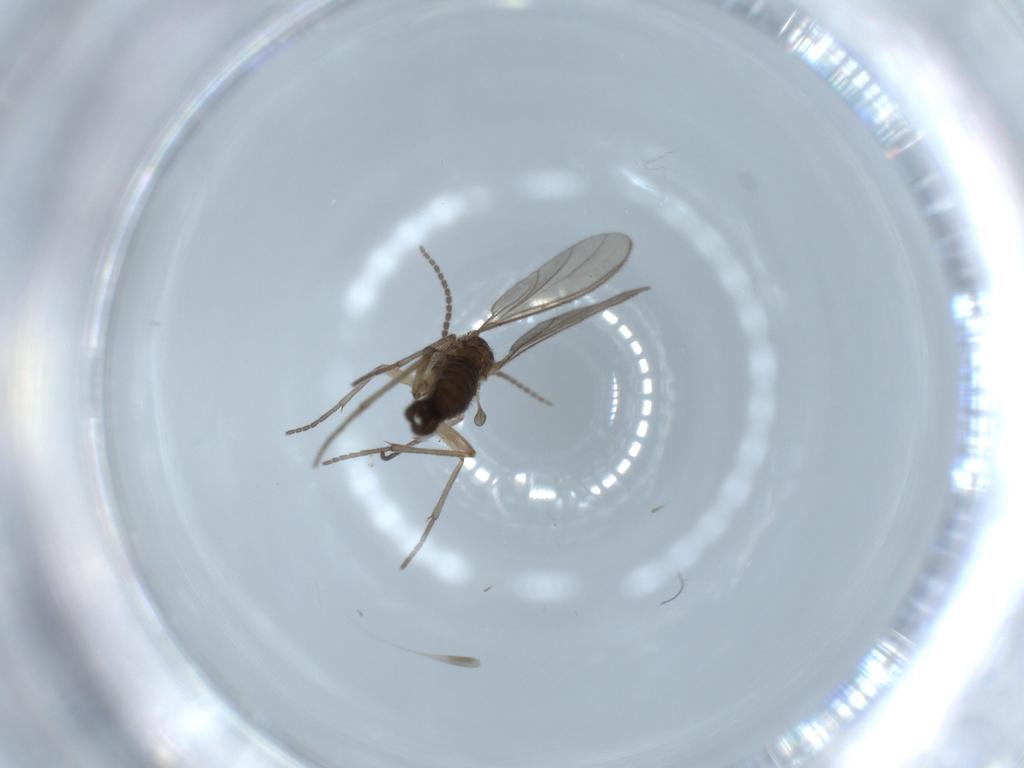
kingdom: Animalia
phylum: Arthropoda
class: Insecta
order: Diptera
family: Sciaridae
